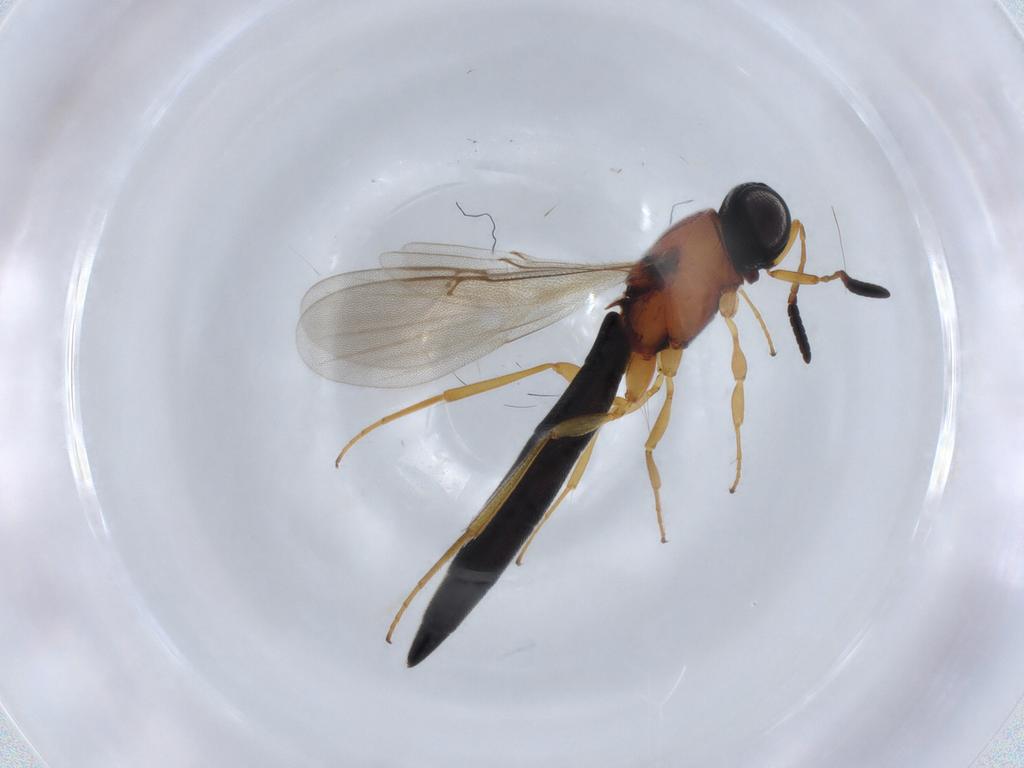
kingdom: Animalia
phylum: Arthropoda
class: Insecta
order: Hymenoptera
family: Scelionidae
